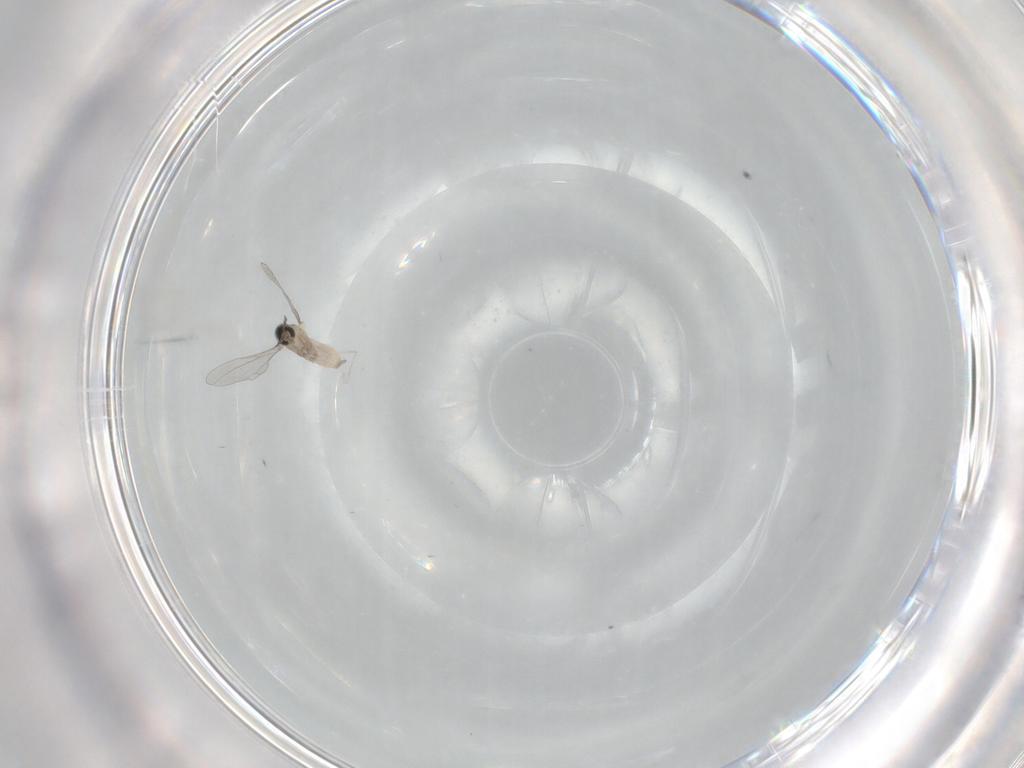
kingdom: Animalia
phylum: Arthropoda
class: Insecta
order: Diptera
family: Cecidomyiidae
